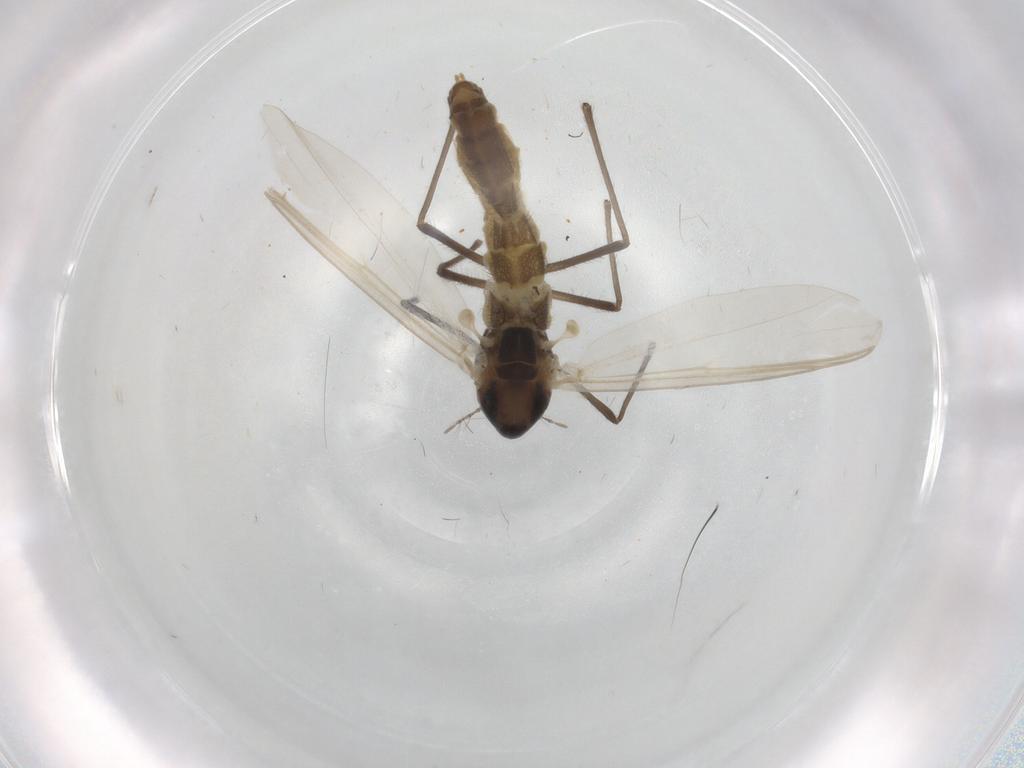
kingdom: Animalia
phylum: Arthropoda
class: Insecta
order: Diptera
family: Chironomidae
